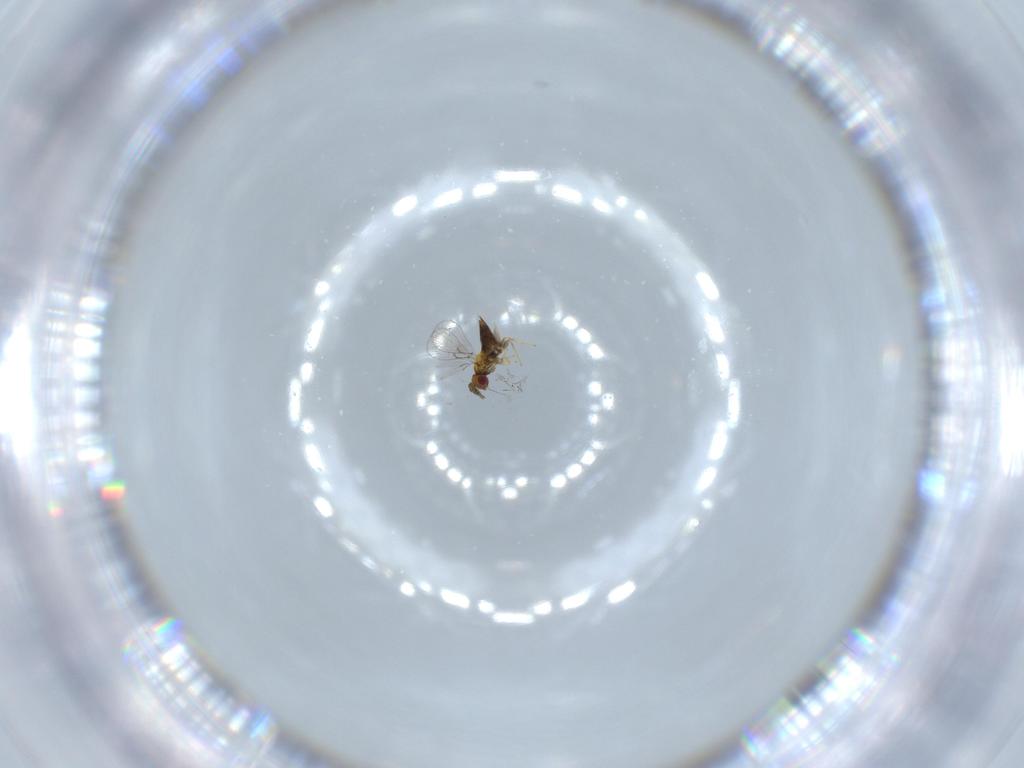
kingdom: Animalia
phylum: Arthropoda
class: Insecta
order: Hymenoptera
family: Trichogrammatidae
